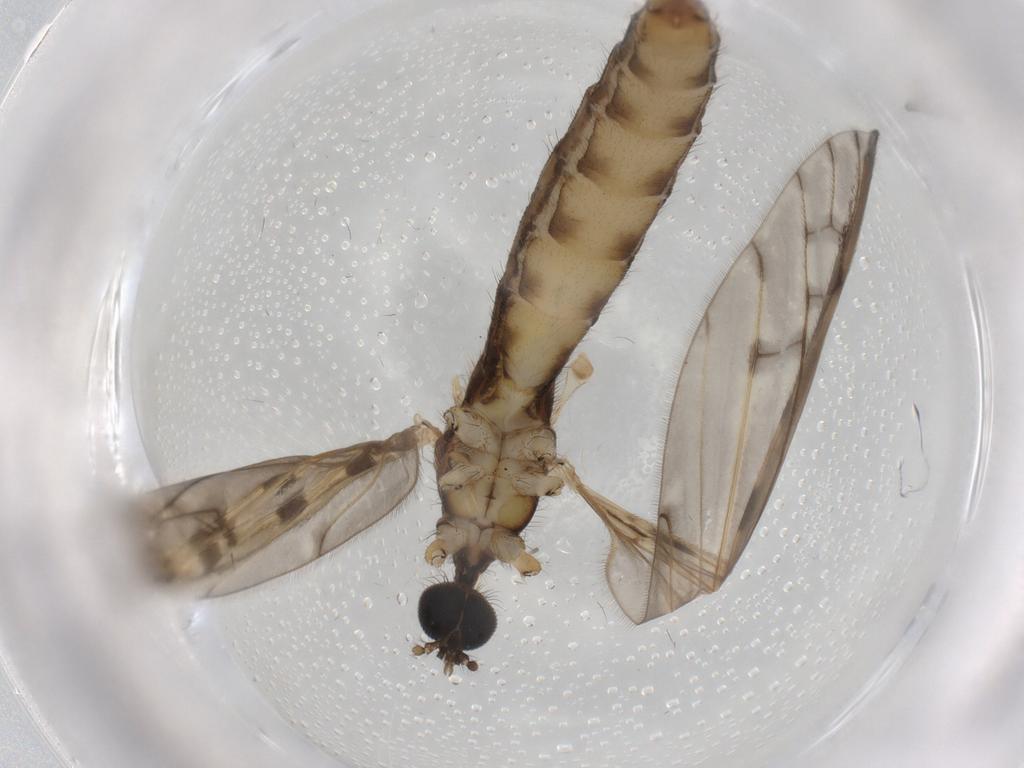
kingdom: Animalia
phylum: Arthropoda
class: Insecta
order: Diptera
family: Limoniidae
